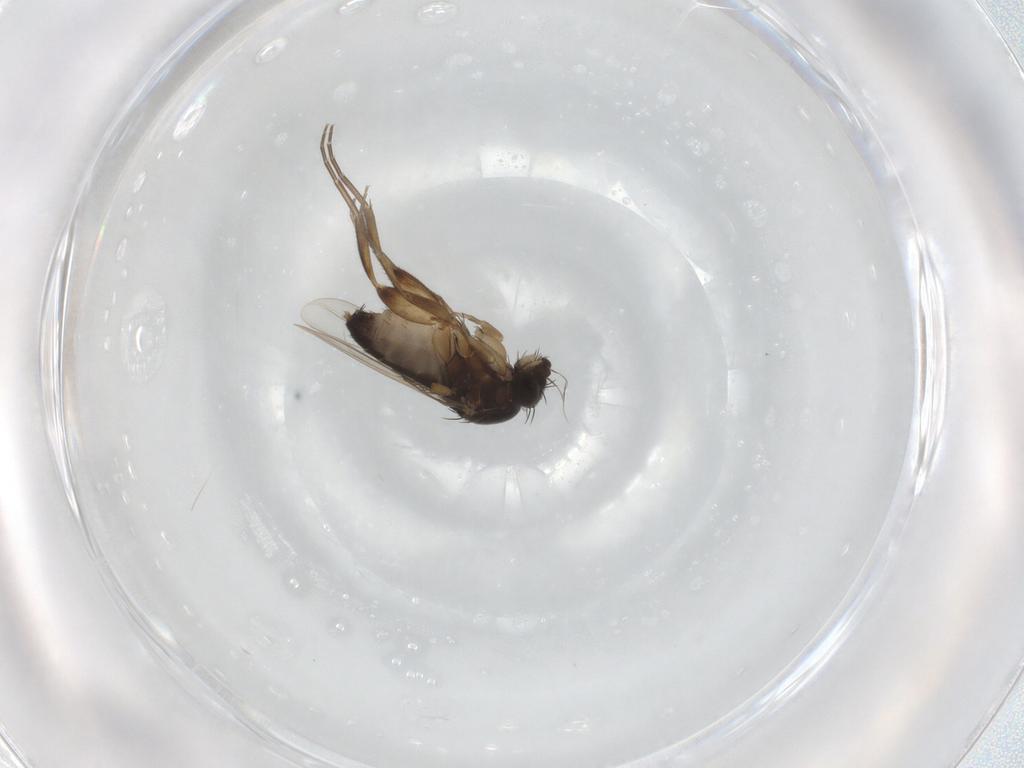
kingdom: Animalia
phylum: Arthropoda
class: Insecta
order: Diptera
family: Phoridae
